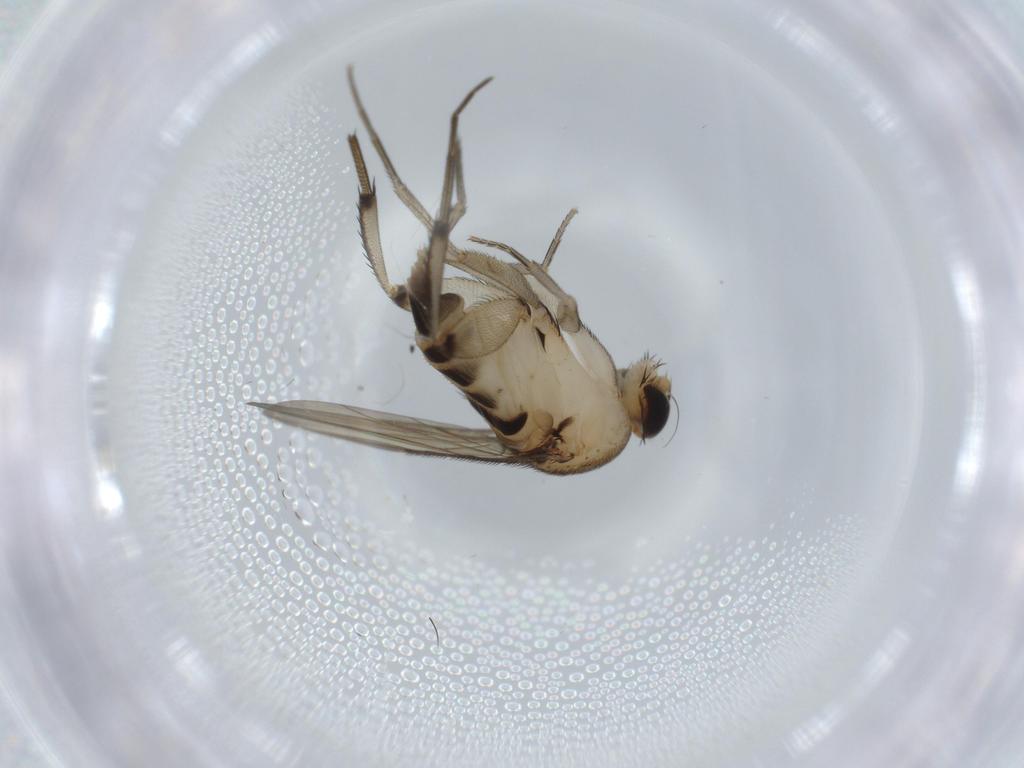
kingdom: Animalia
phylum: Arthropoda
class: Insecta
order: Diptera
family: Phoridae
